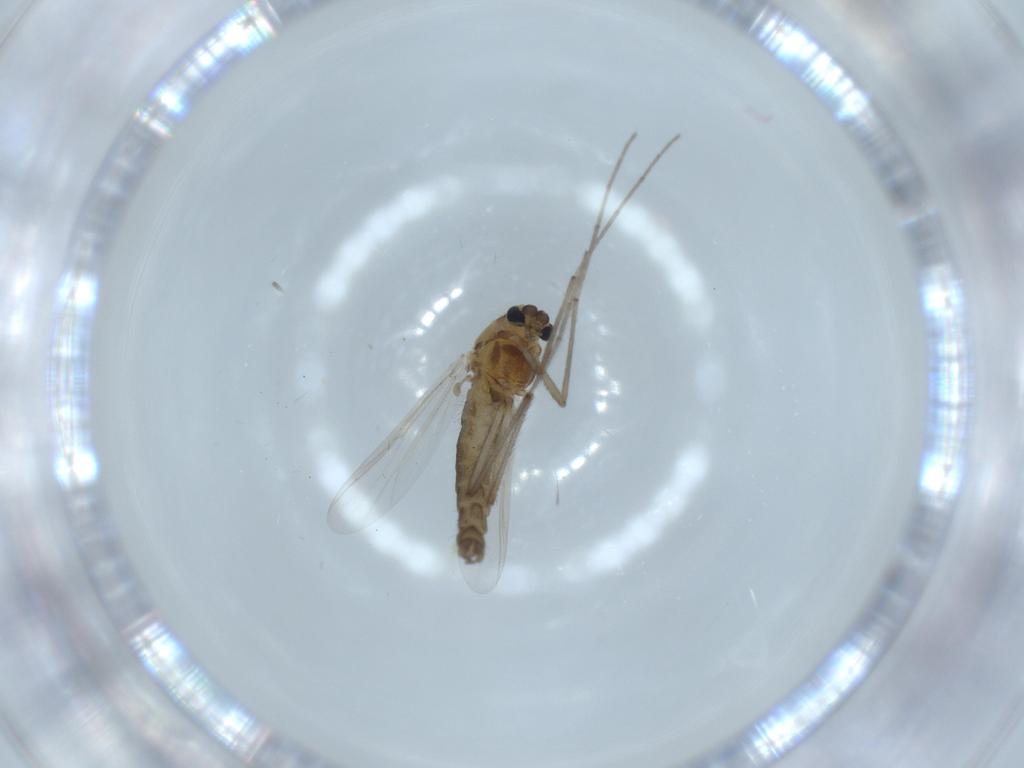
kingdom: Animalia
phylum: Arthropoda
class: Insecta
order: Diptera
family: Chironomidae
